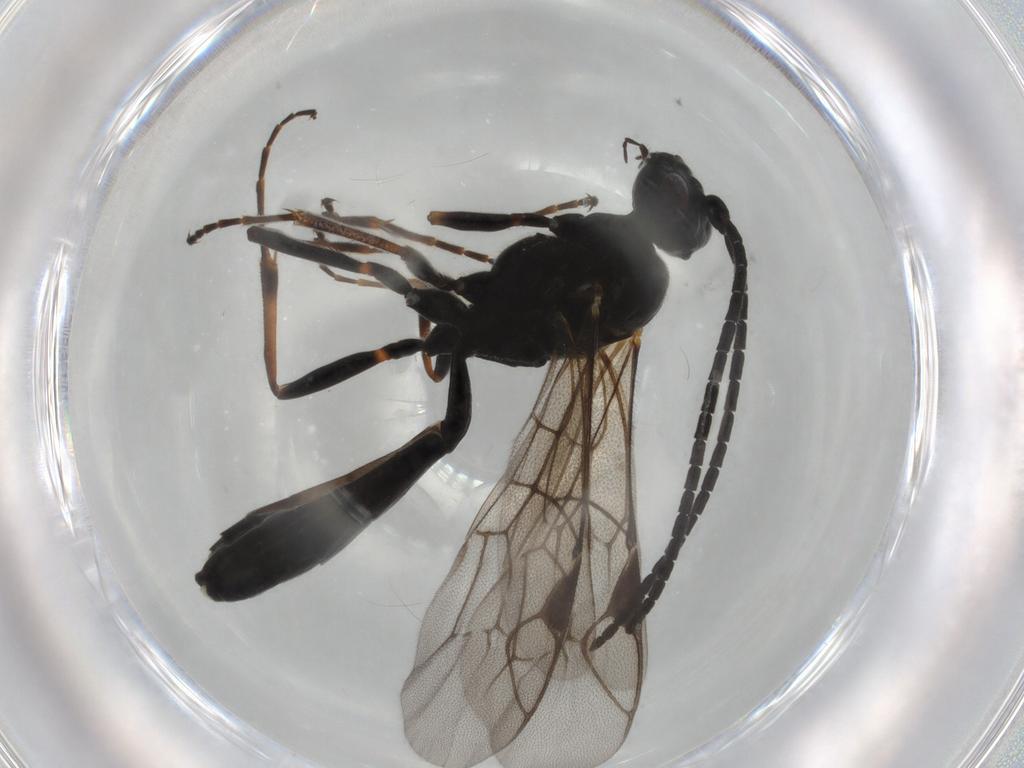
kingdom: Animalia
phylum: Arthropoda
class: Insecta
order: Hymenoptera
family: Ichneumonidae
